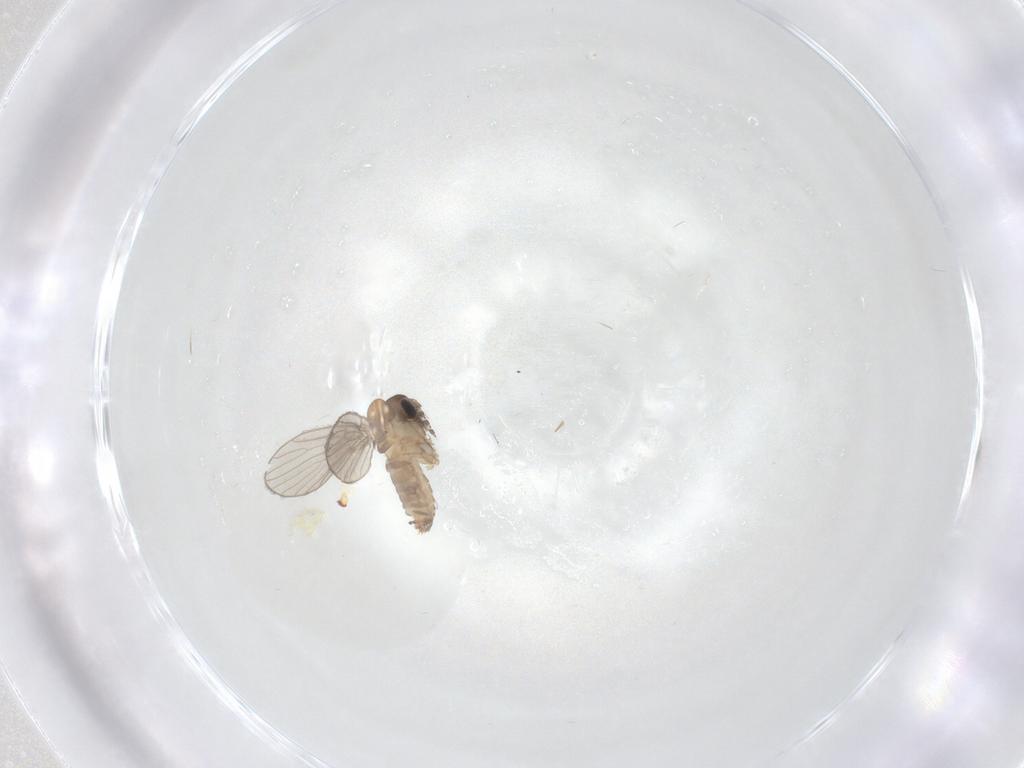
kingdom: Animalia
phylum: Arthropoda
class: Insecta
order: Diptera
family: Psychodidae
